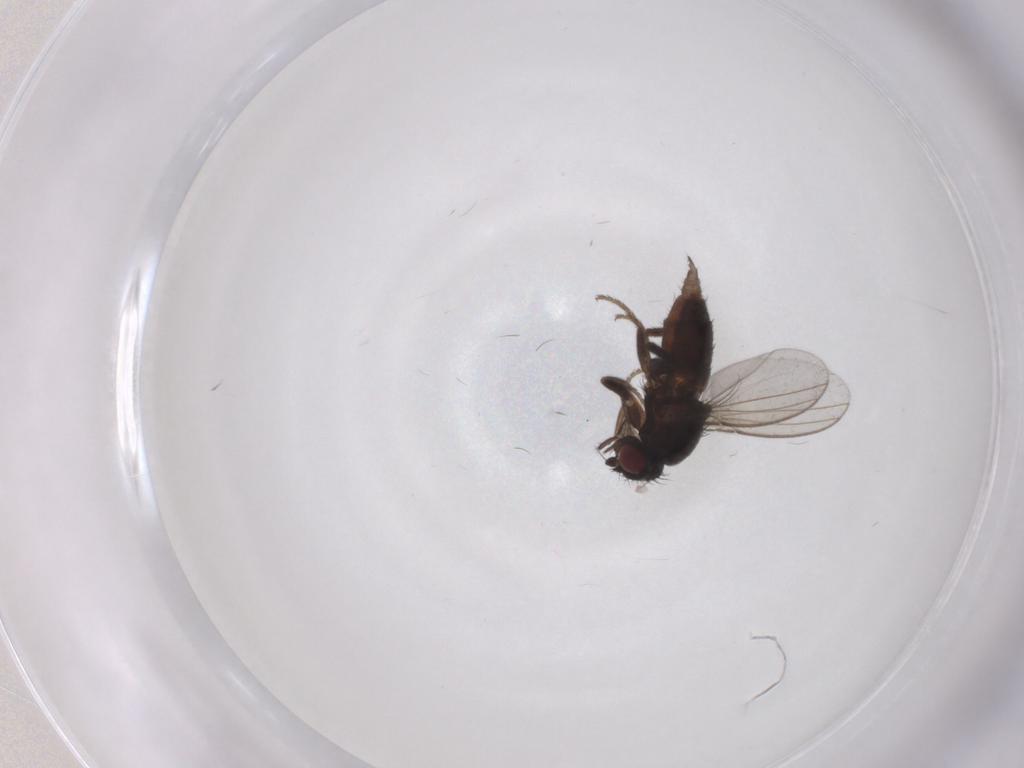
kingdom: Animalia
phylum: Arthropoda
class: Insecta
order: Diptera
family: Milichiidae
